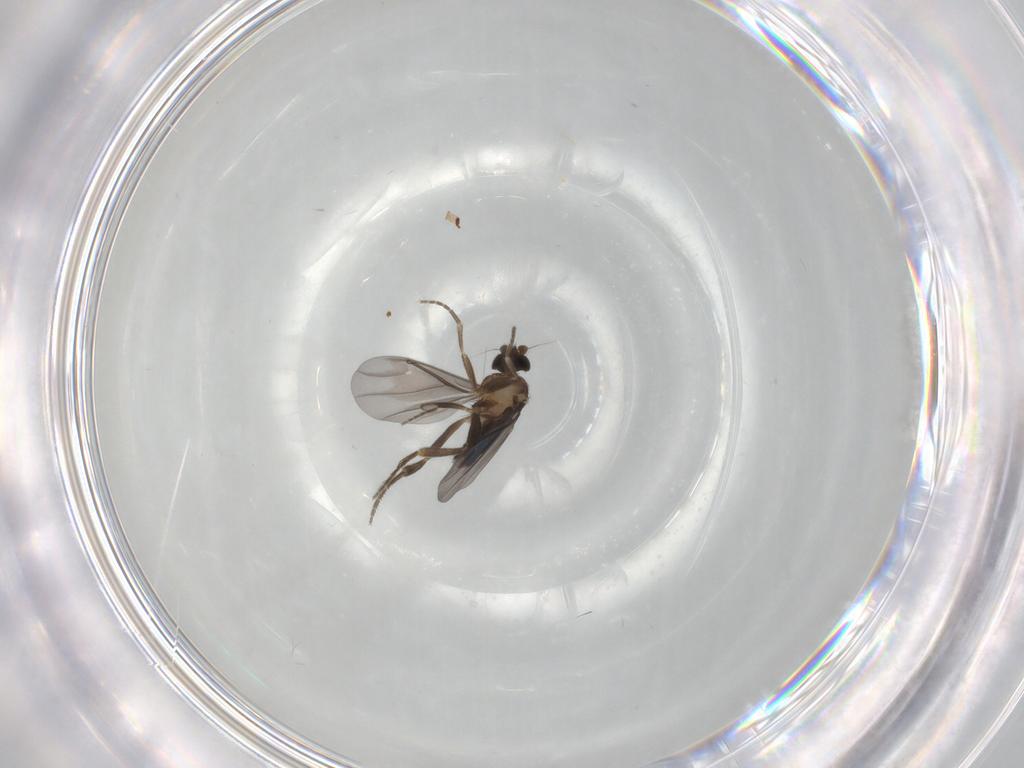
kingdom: Animalia
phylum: Arthropoda
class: Insecta
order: Diptera
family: Phoridae
